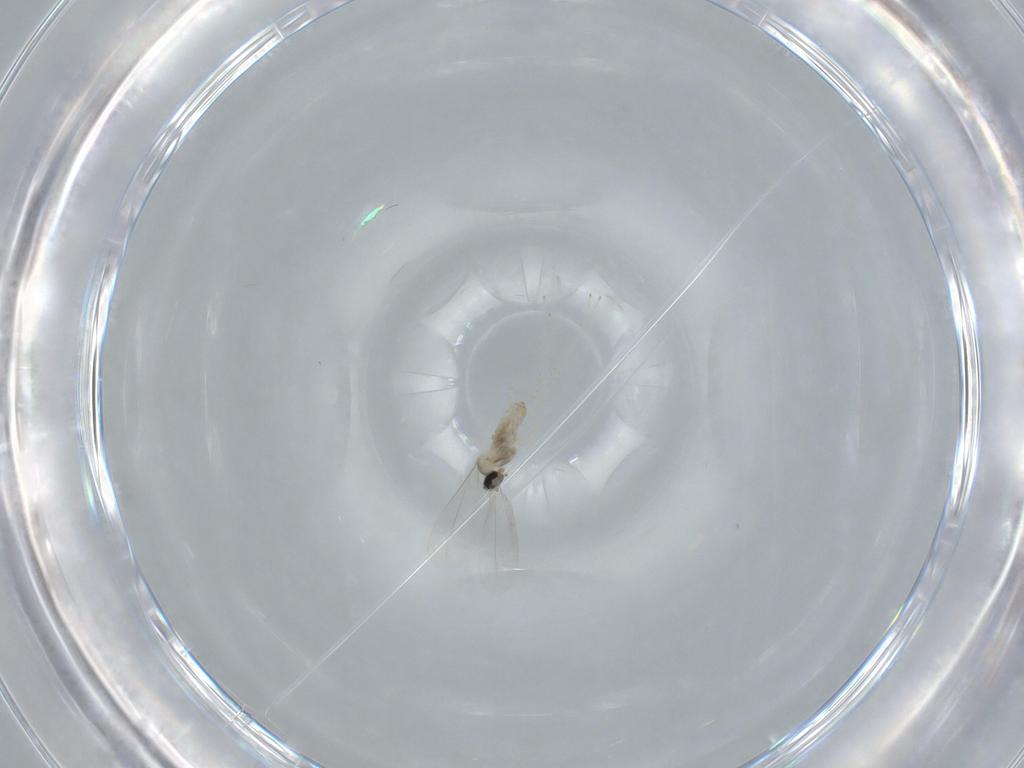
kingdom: Animalia
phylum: Arthropoda
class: Insecta
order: Diptera
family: Cecidomyiidae
